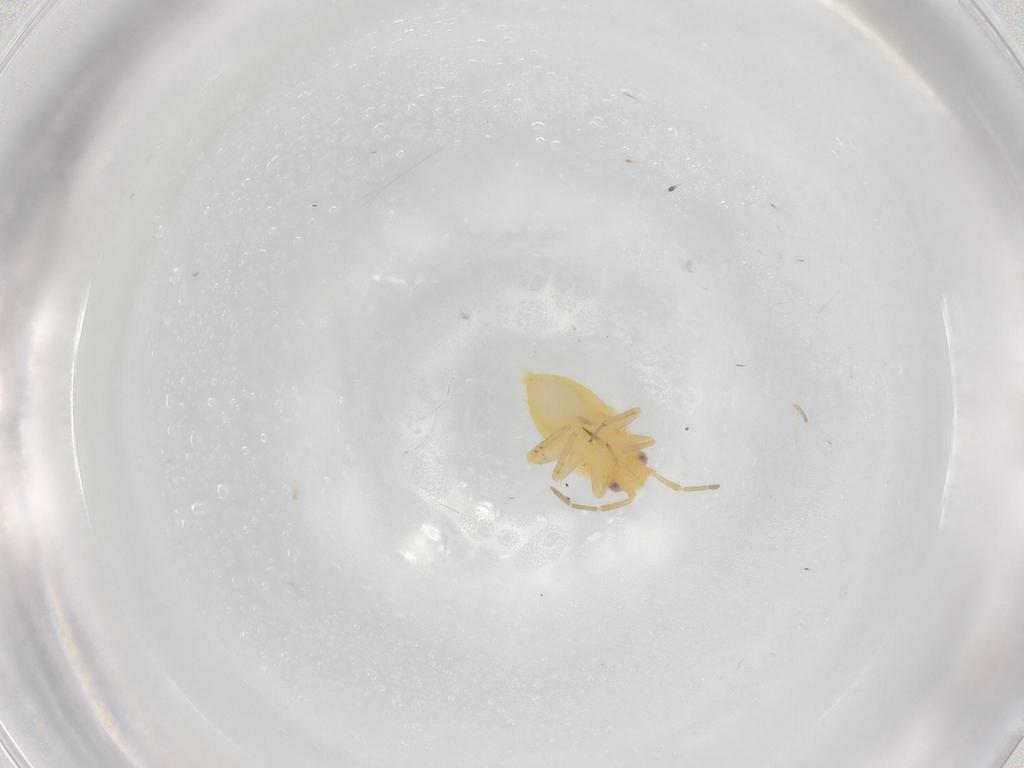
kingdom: Animalia
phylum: Arthropoda
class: Insecta
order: Hemiptera
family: Miridae
